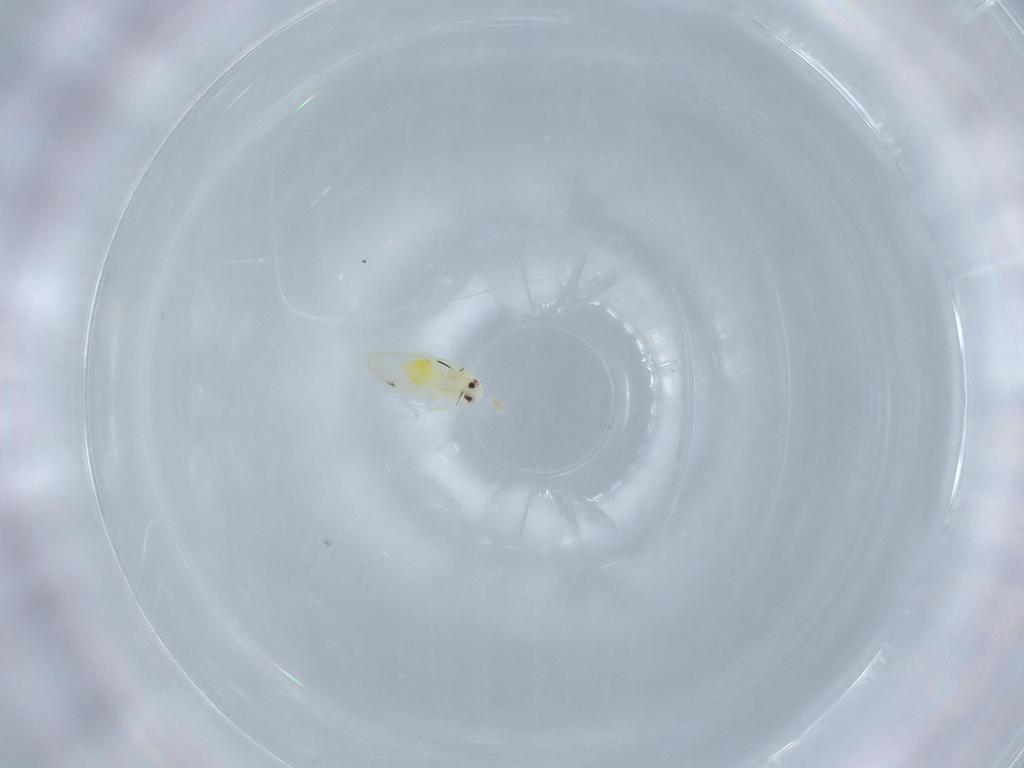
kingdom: Animalia
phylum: Arthropoda
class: Insecta
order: Hemiptera
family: Aleyrodidae
